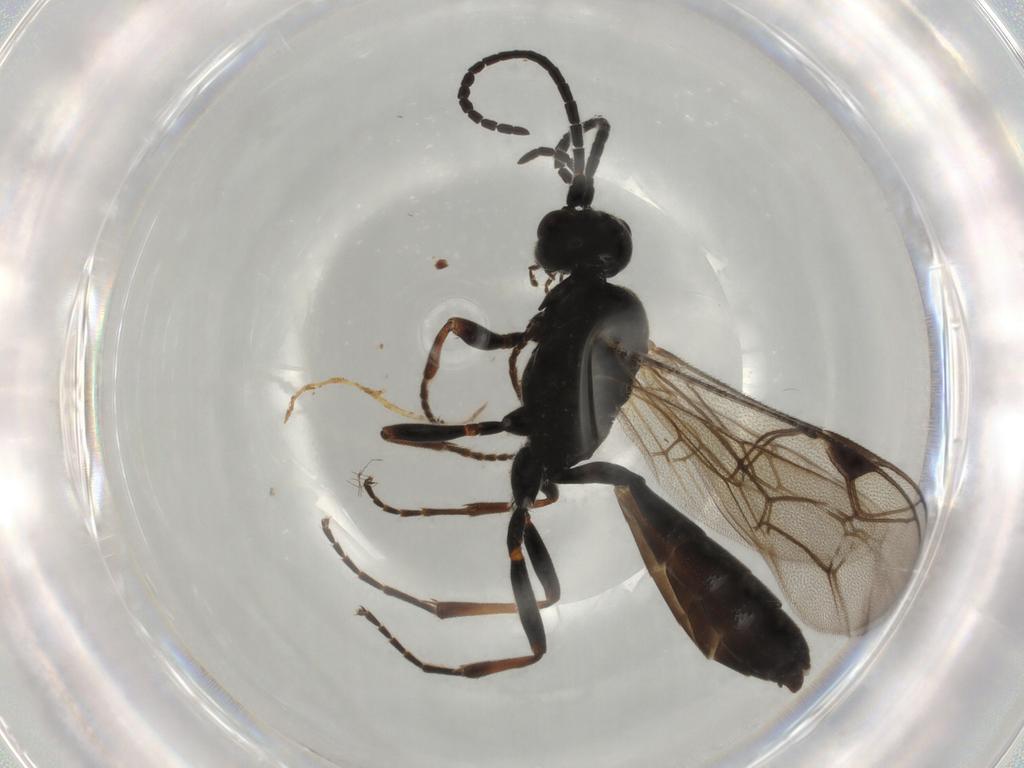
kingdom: Animalia
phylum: Arthropoda
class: Insecta
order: Hymenoptera
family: Ichneumonidae
